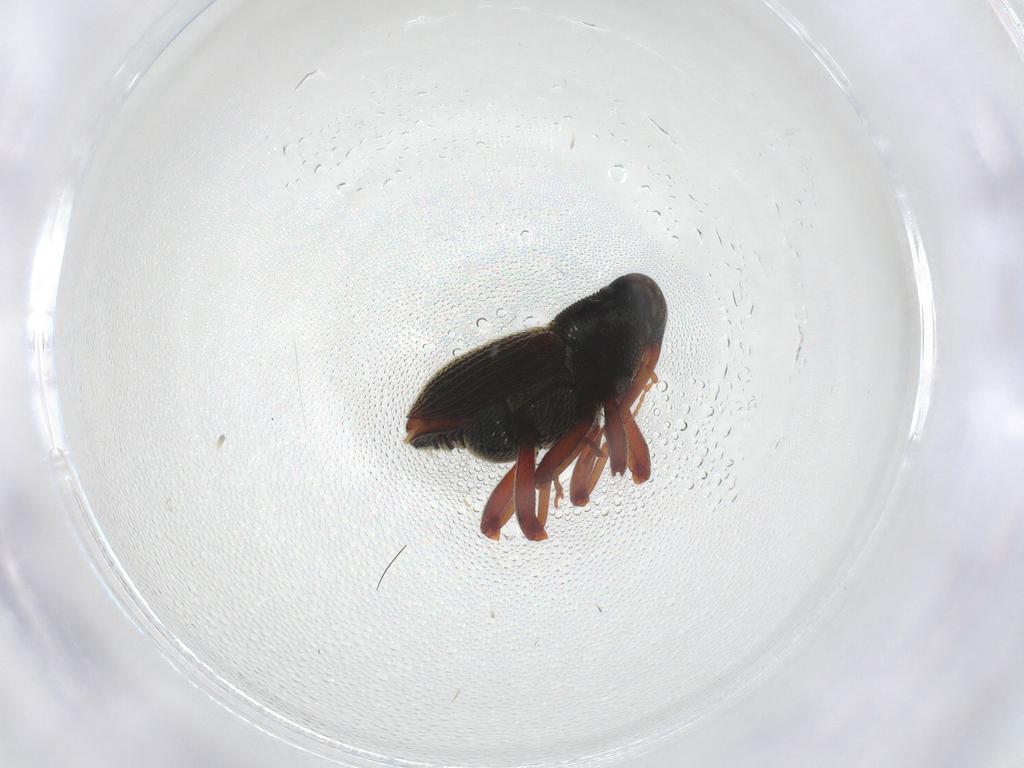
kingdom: Animalia
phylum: Arthropoda
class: Insecta
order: Coleoptera
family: Curculionidae
